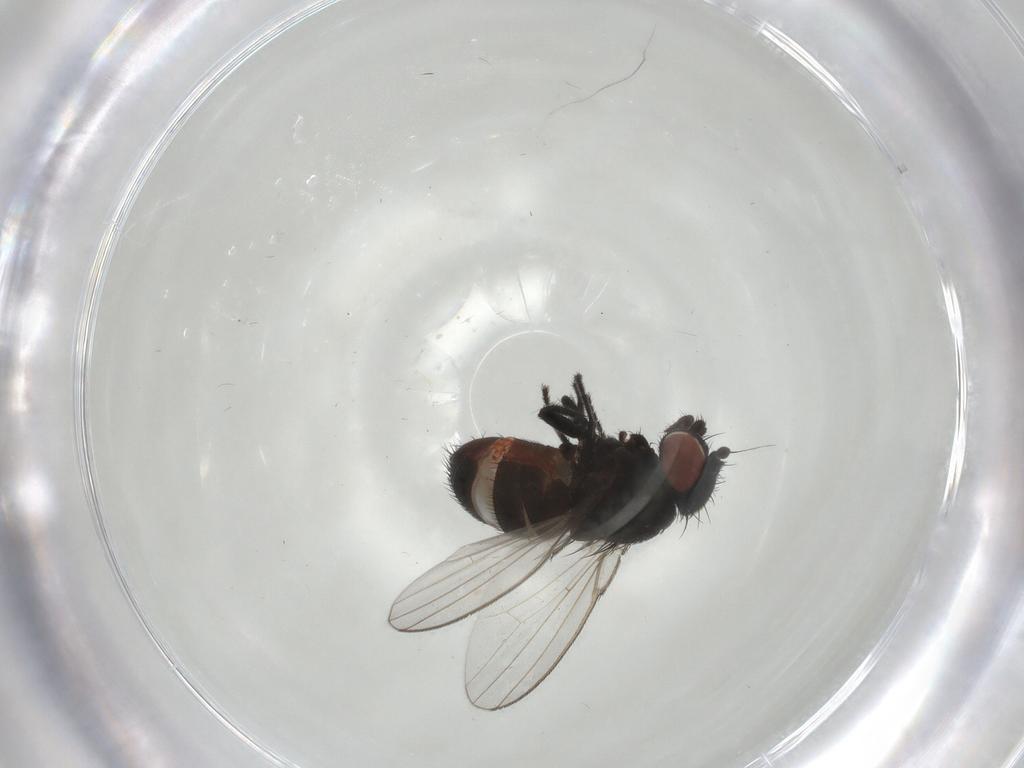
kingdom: Animalia
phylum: Arthropoda
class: Insecta
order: Diptera
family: Milichiidae
